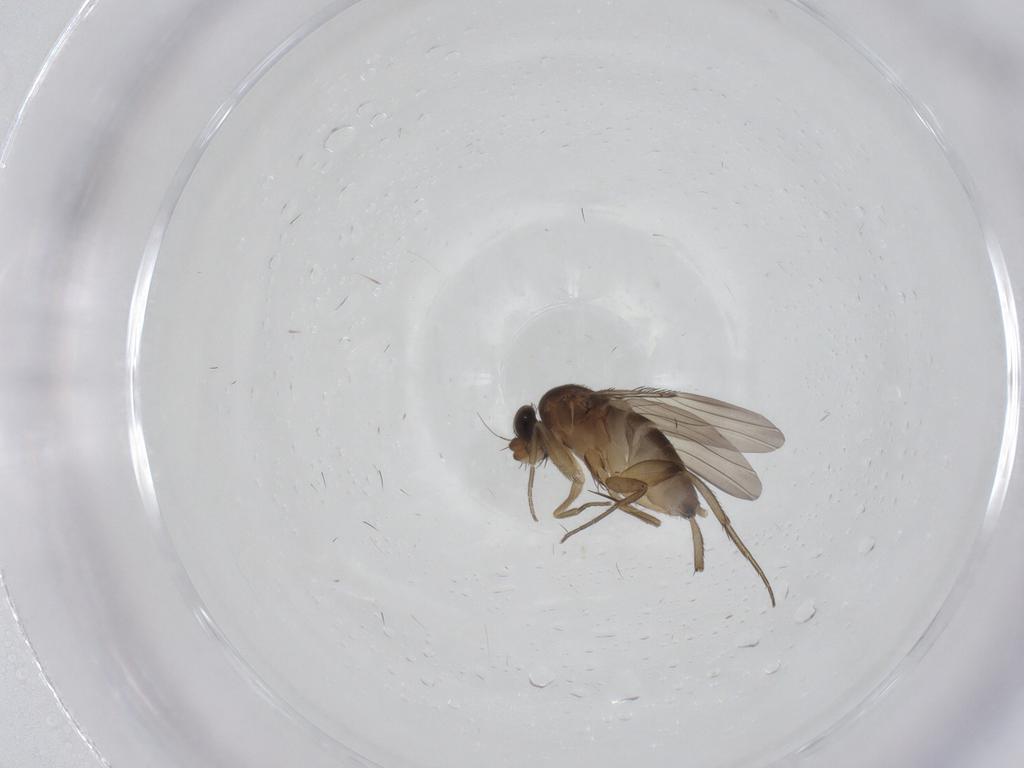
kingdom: Animalia
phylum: Arthropoda
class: Insecta
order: Diptera
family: Phoridae
